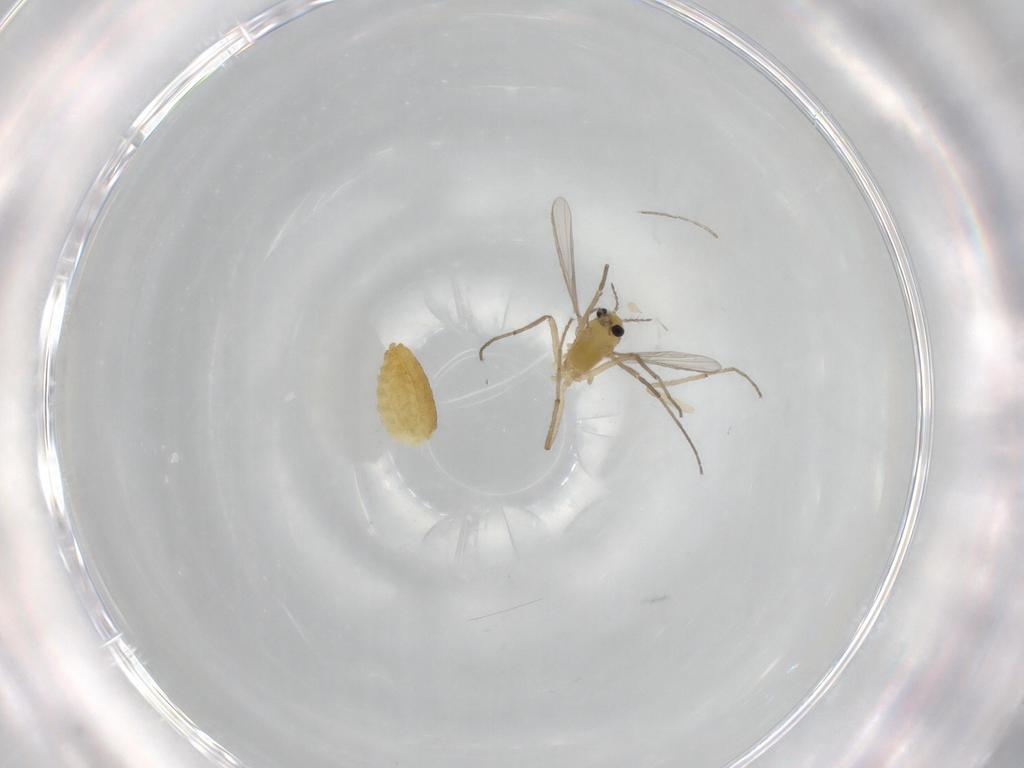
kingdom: Animalia
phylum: Arthropoda
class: Insecta
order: Diptera
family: Chironomidae
